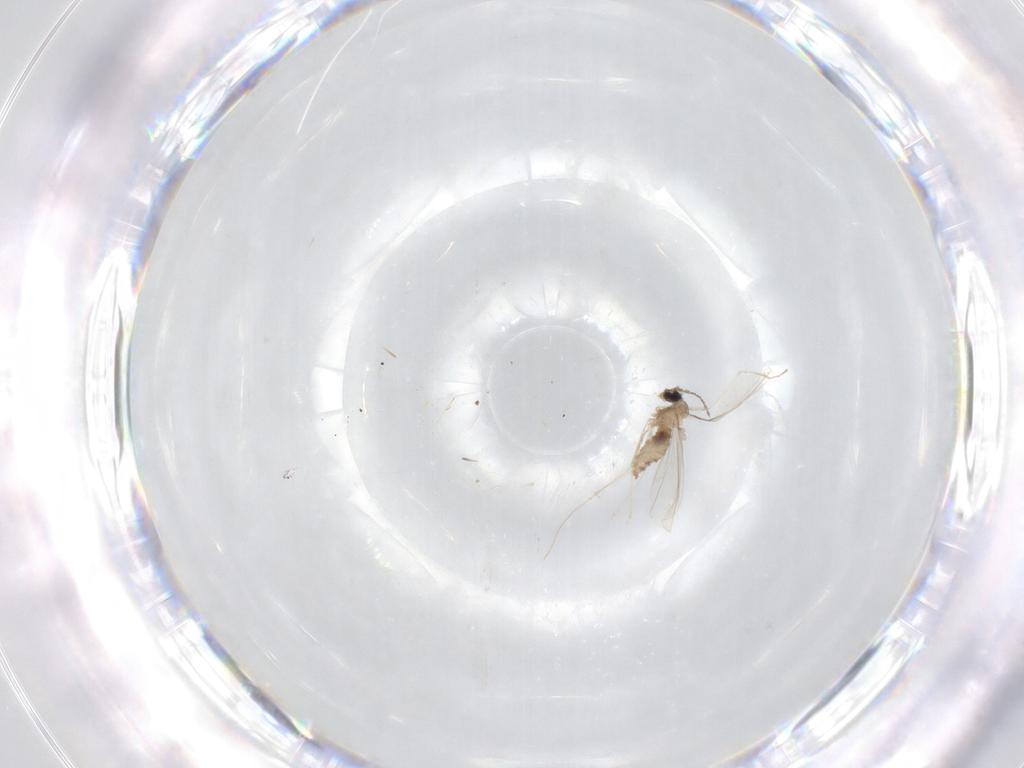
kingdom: Animalia
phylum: Arthropoda
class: Insecta
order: Diptera
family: Cecidomyiidae
